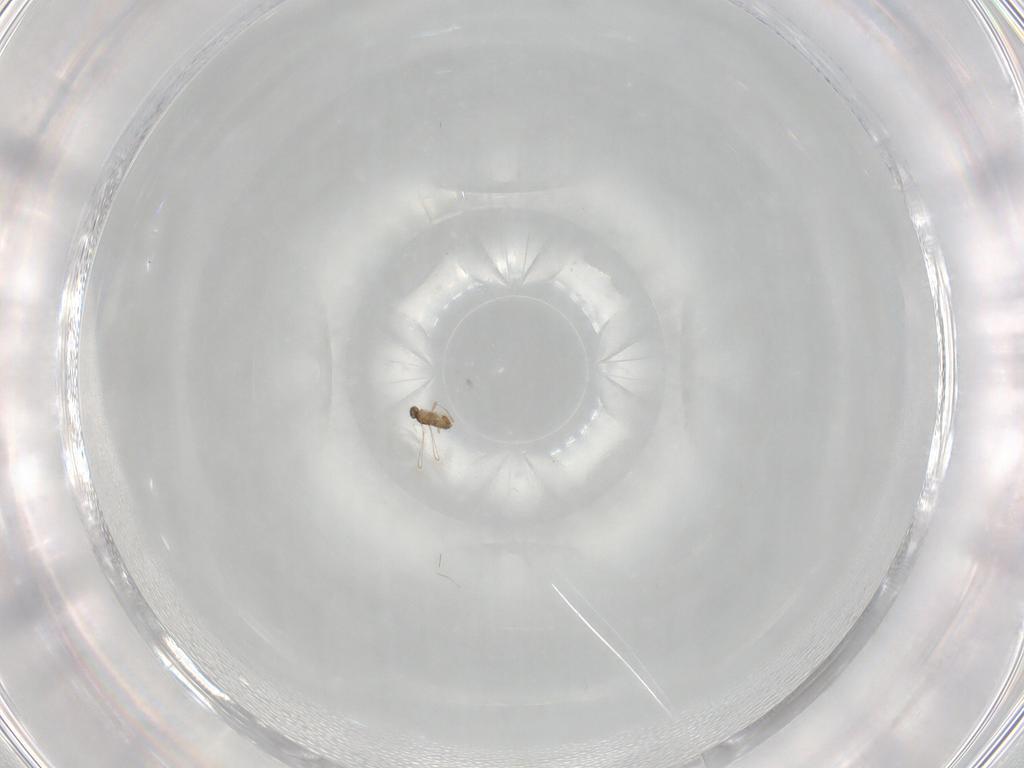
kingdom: Animalia
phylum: Arthropoda
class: Insecta
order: Hymenoptera
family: Mymaridae
